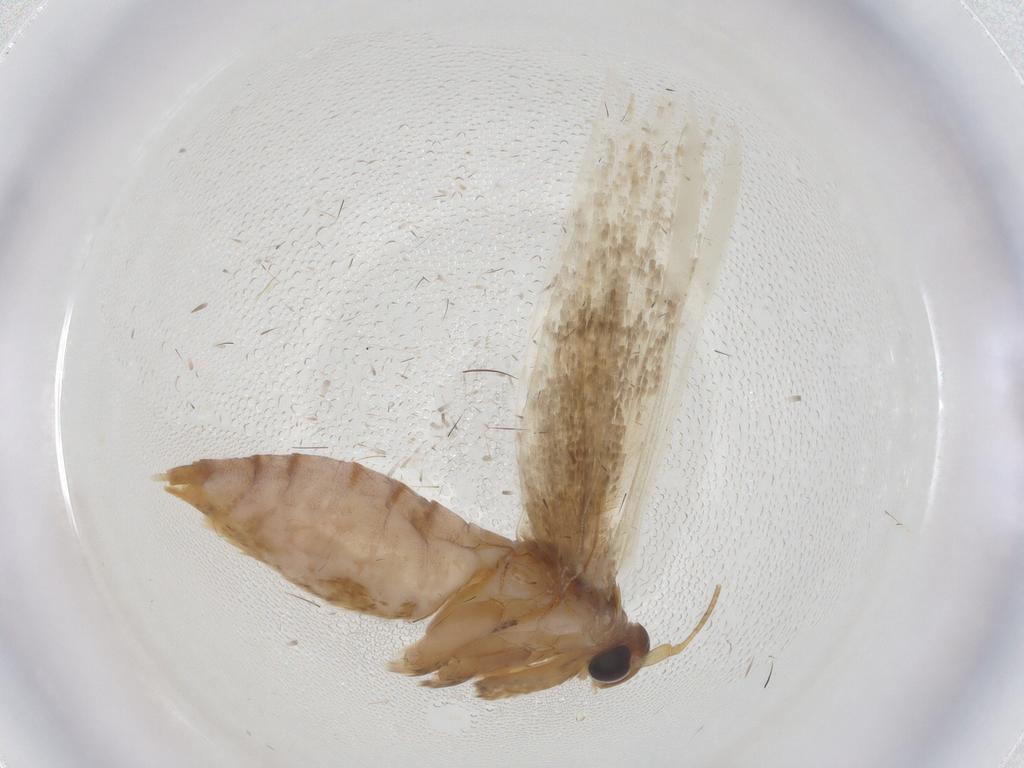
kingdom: Animalia
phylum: Arthropoda
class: Insecta
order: Lepidoptera
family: Blastobasidae
